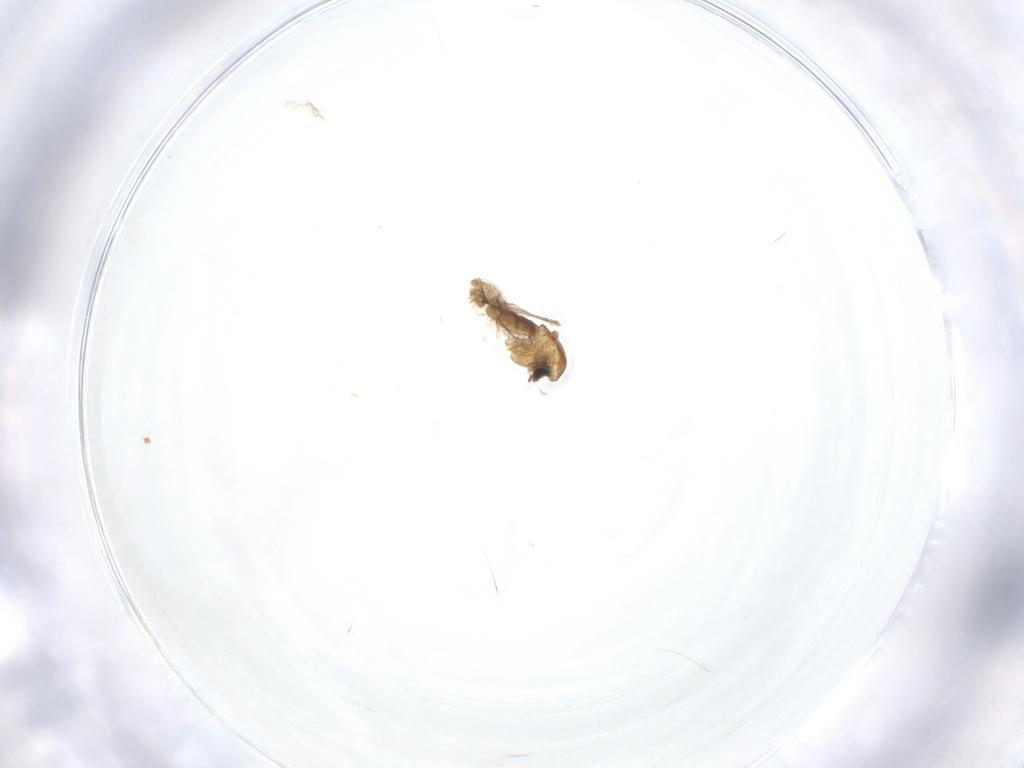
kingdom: Animalia
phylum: Arthropoda
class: Insecta
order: Diptera
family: Chironomidae
